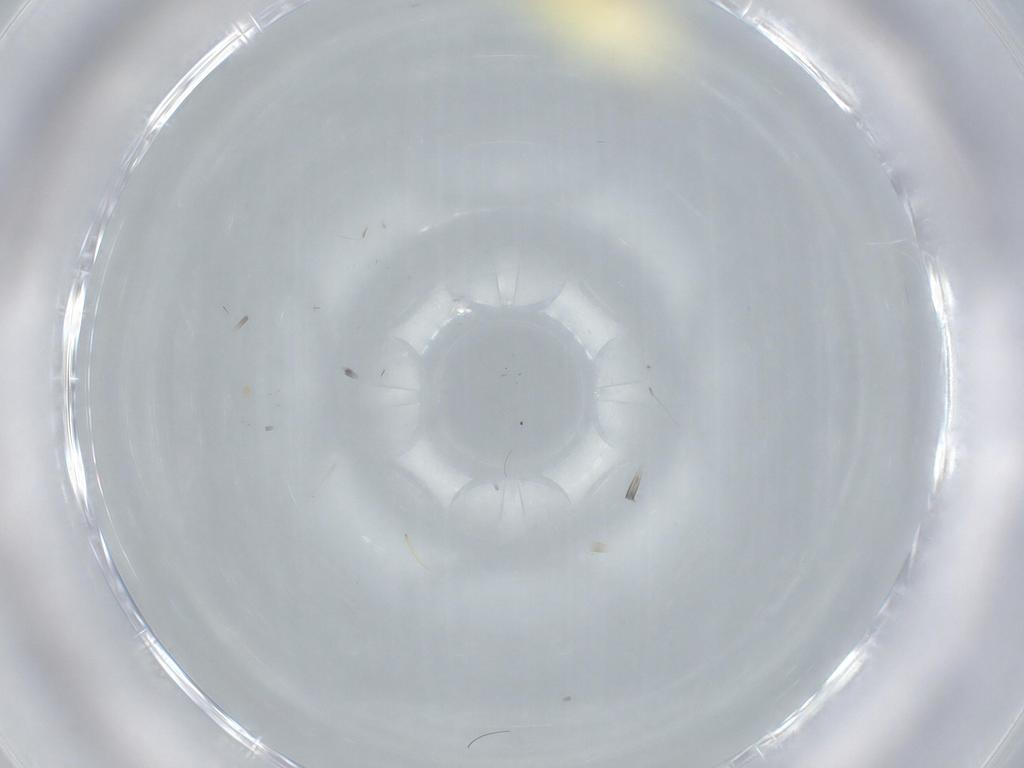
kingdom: Animalia
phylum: Arthropoda
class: Insecta
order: Hemiptera
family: Cicadellidae
